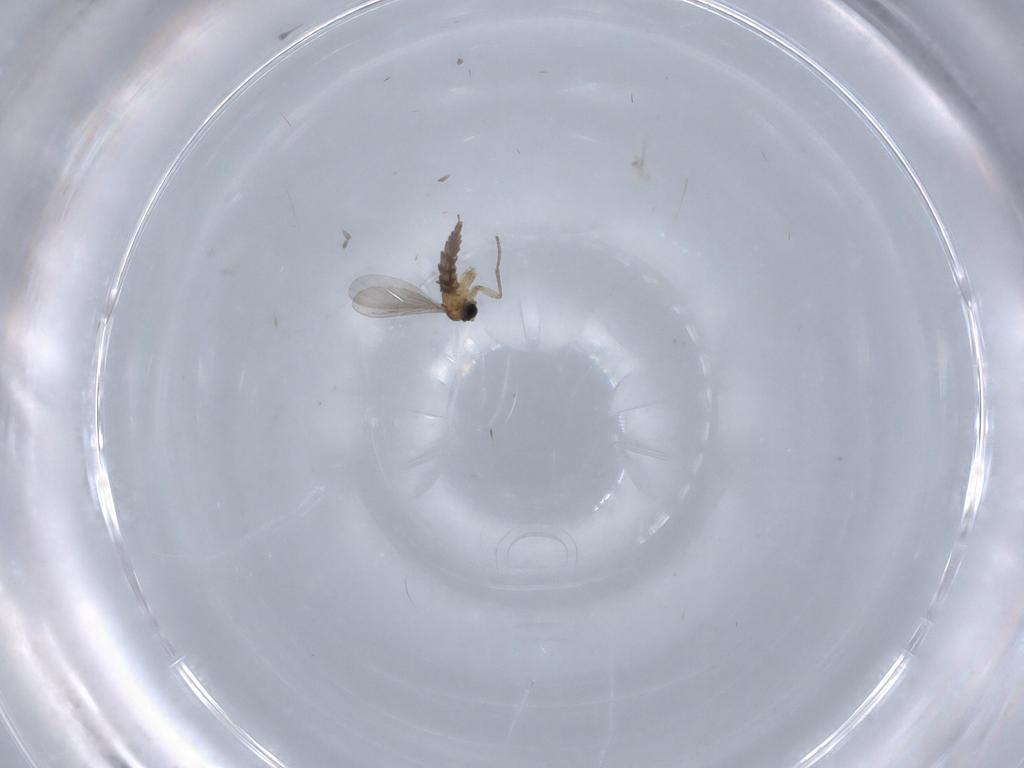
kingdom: Animalia
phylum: Arthropoda
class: Insecta
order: Diptera
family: Sciaridae
